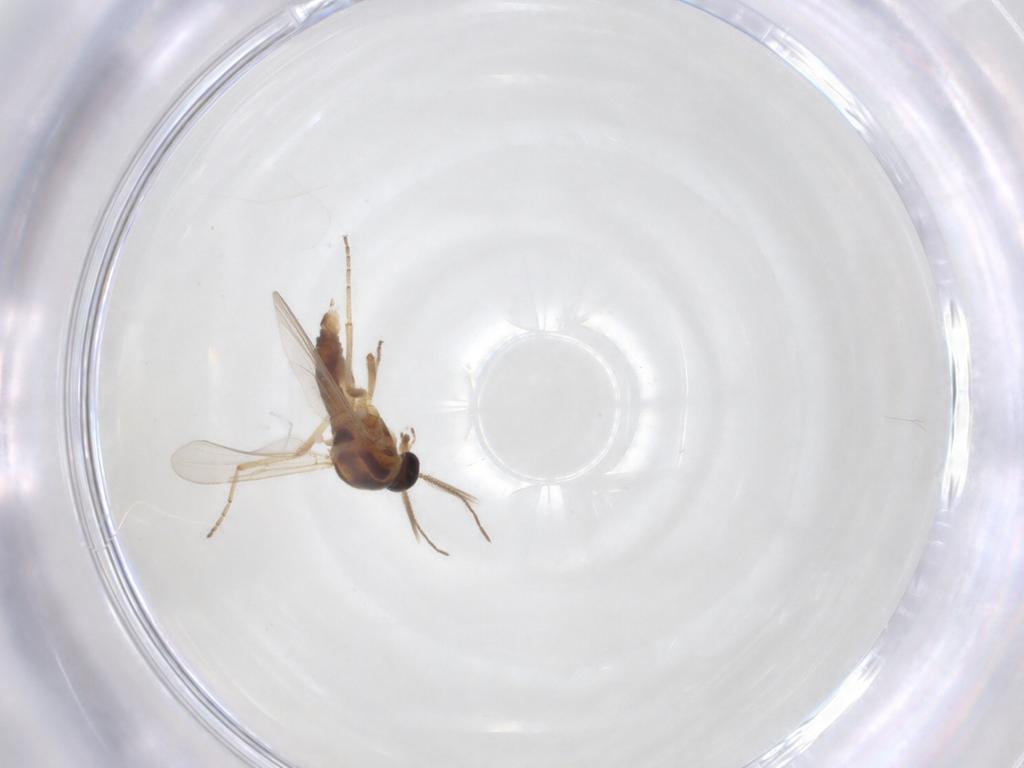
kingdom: Animalia
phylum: Arthropoda
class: Insecta
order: Diptera
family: Ceratopogonidae
